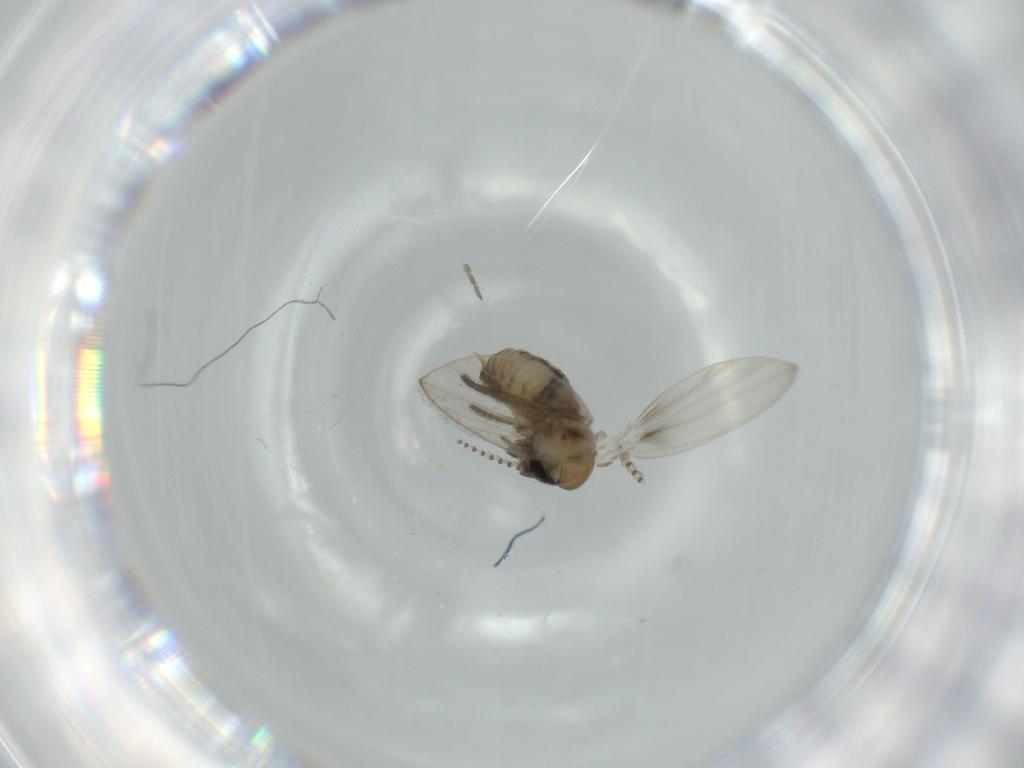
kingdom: Animalia
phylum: Arthropoda
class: Insecta
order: Diptera
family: Psychodidae
